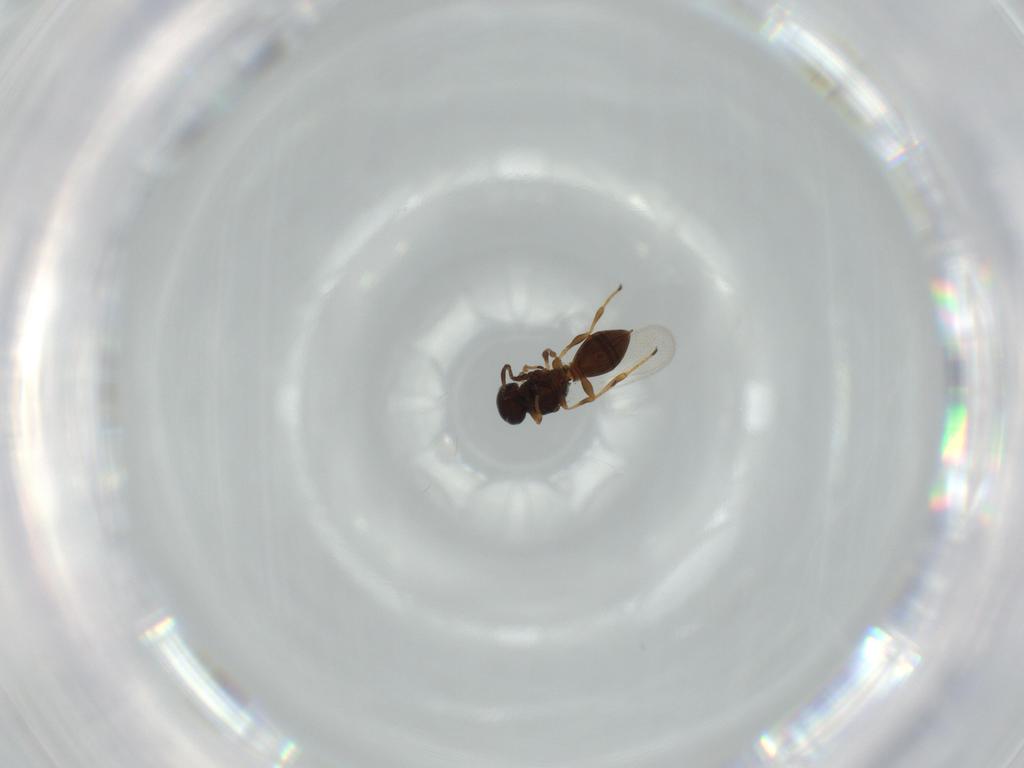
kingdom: Animalia
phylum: Arthropoda
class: Insecta
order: Hymenoptera
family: Platygastridae
